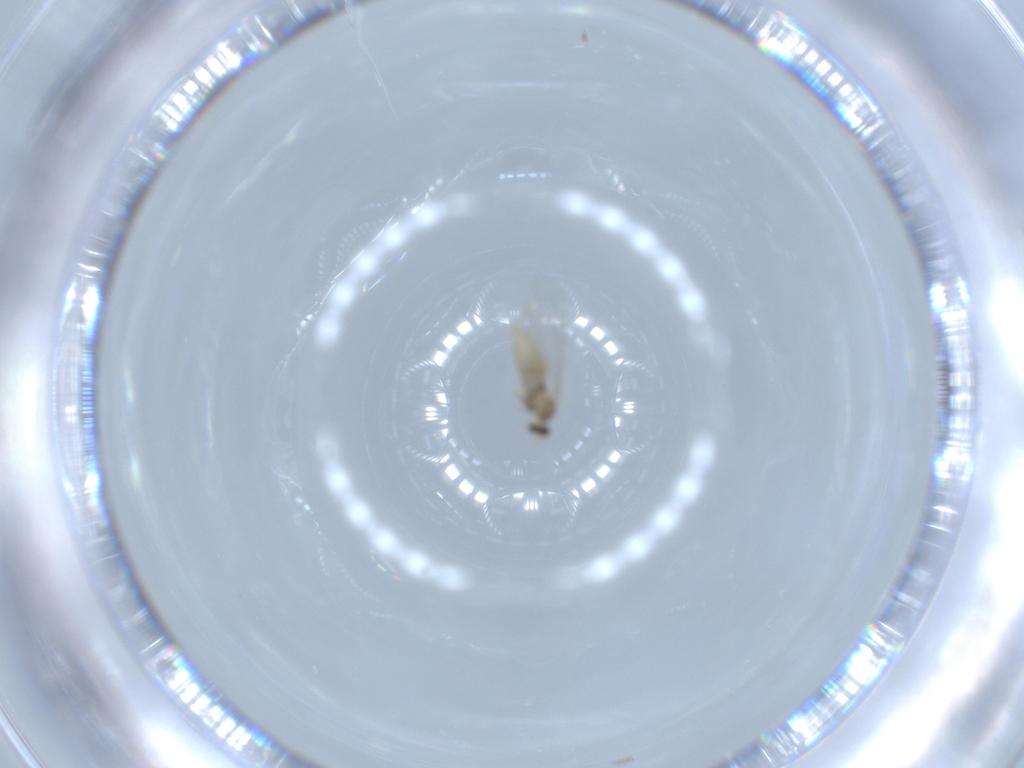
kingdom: Animalia
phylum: Arthropoda
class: Insecta
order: Diptera
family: Cecidomyiidae
